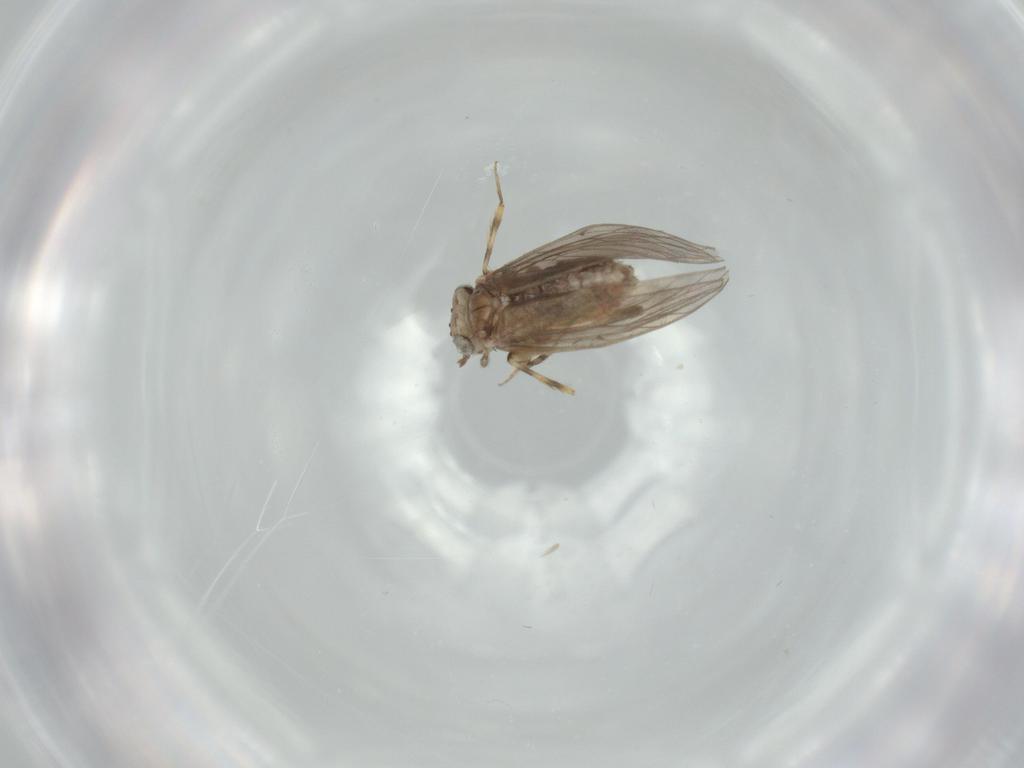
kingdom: Animalia
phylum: Arthropoda
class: Insecta
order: Psocodea
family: Lepidopsocidae
